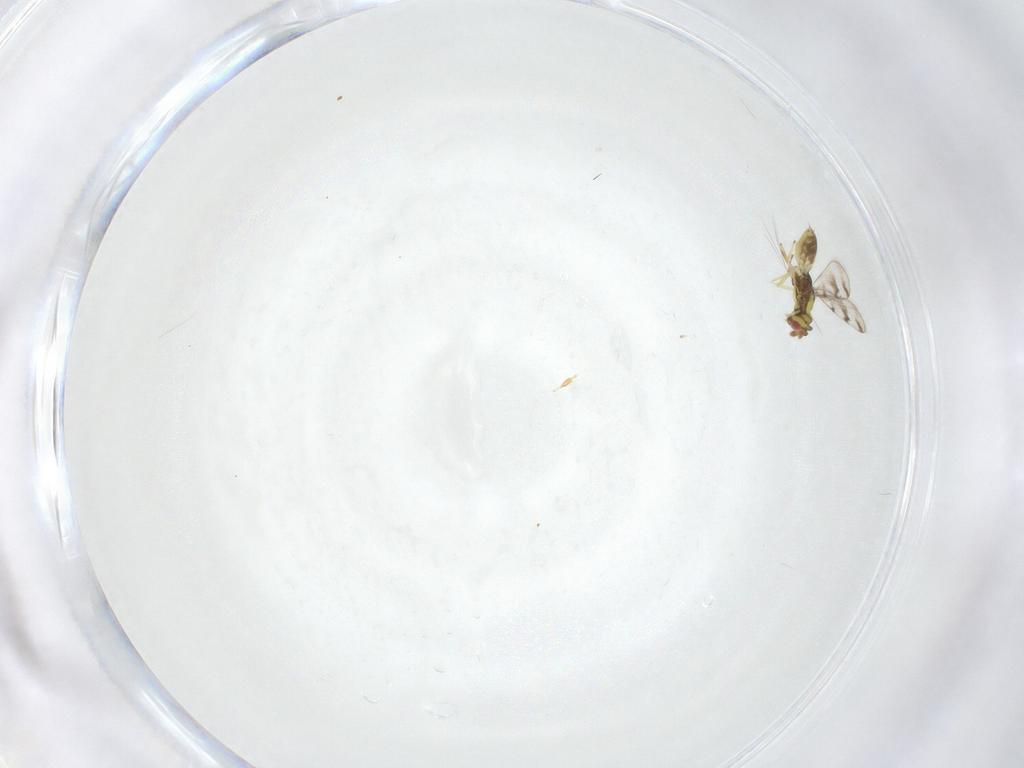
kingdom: Animalia
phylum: Arthropoda
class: Insecta
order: Hymenoptera
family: Eulophidae
